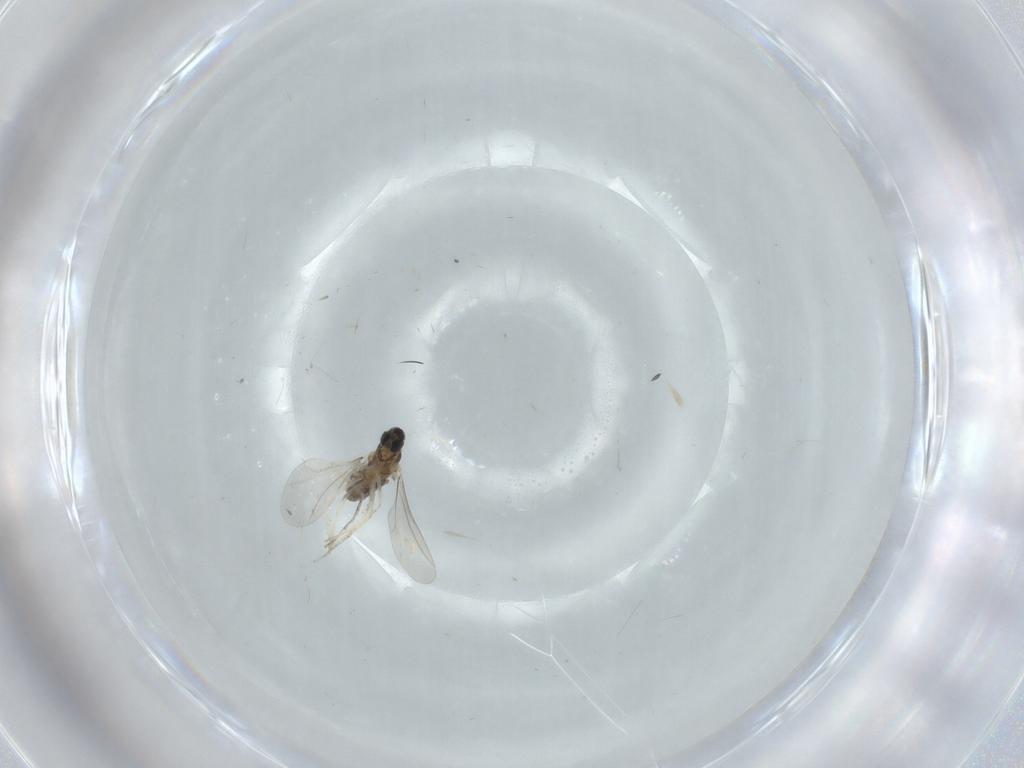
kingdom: Animalia
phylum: Arthropoda
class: Insecta
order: Diptera
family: Cecidomyiidae
